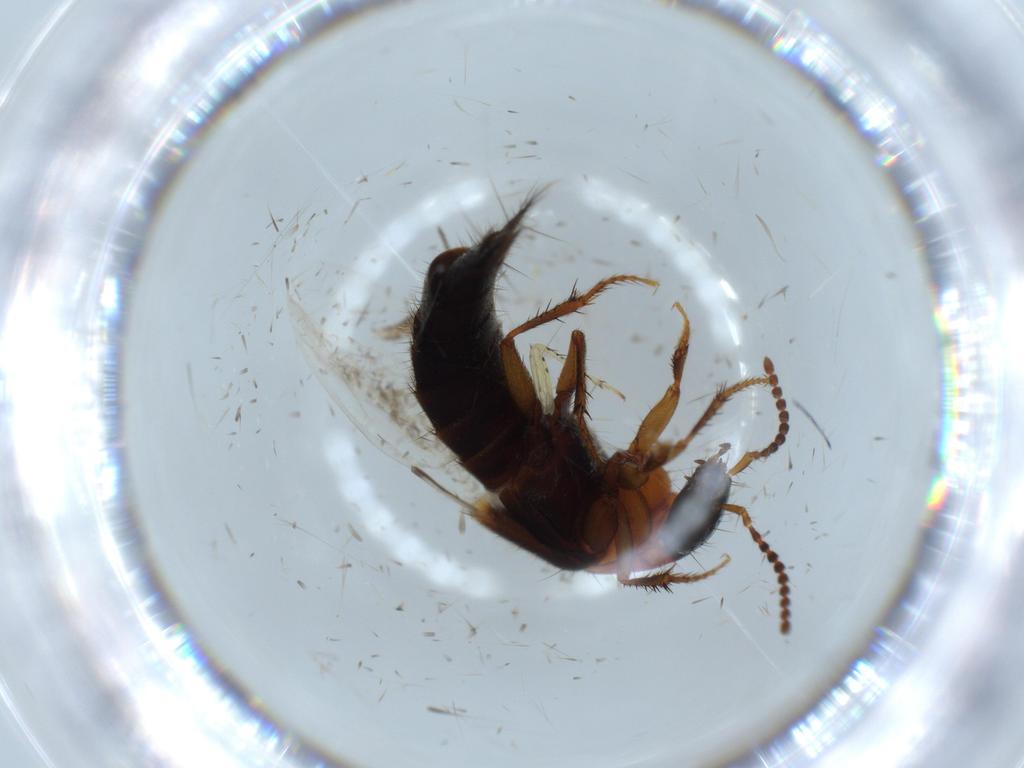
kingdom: Animalia
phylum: Arthropoda
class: Insecta
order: Coleoptera
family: Staphylinidae
